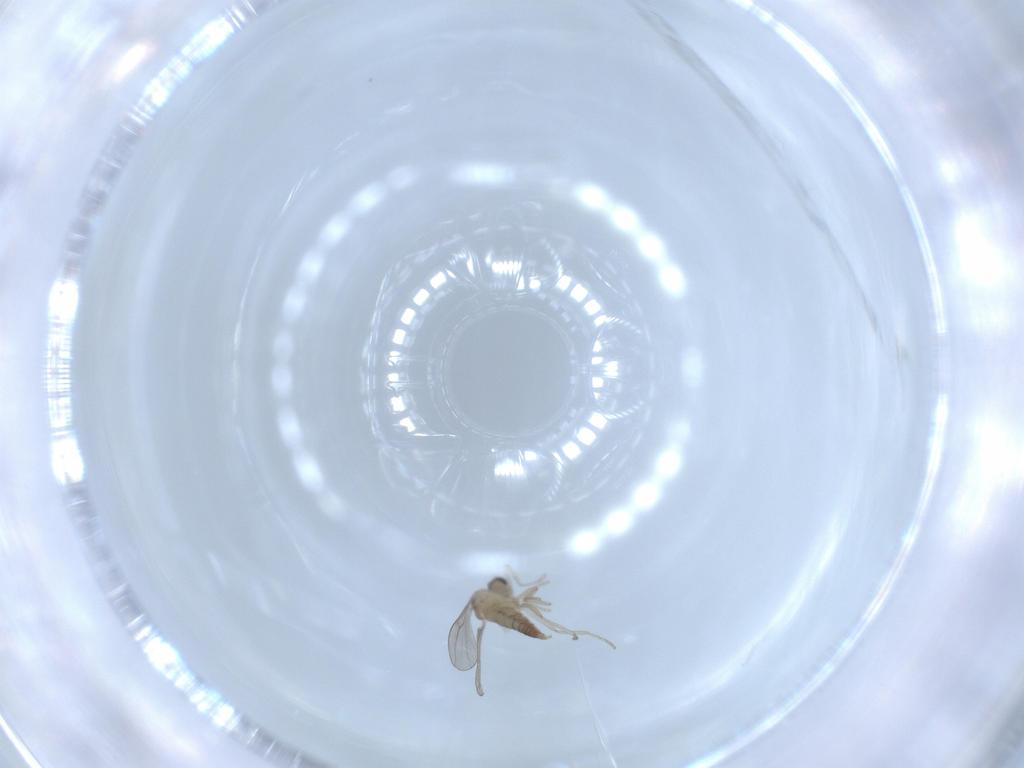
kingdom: Animalia
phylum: Arthropoda
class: Insecta
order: Diptera
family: Cecidomyiidae
